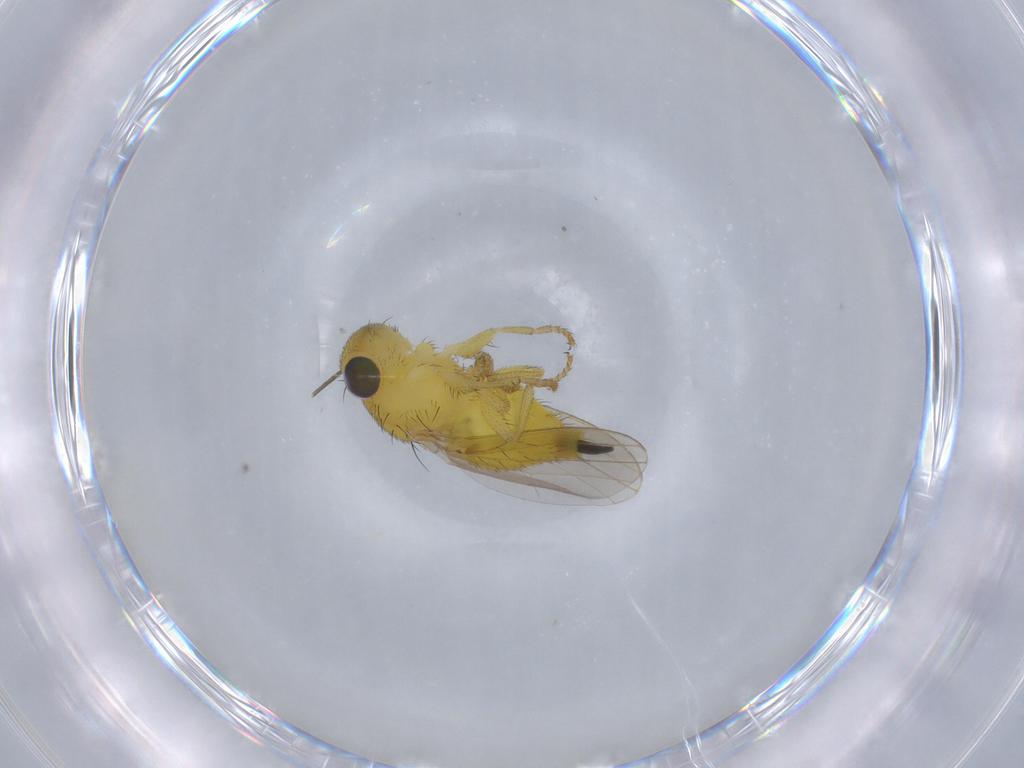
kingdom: Animalia
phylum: Arthropoda
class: Insecta
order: Diptera
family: Fergusoninidae
